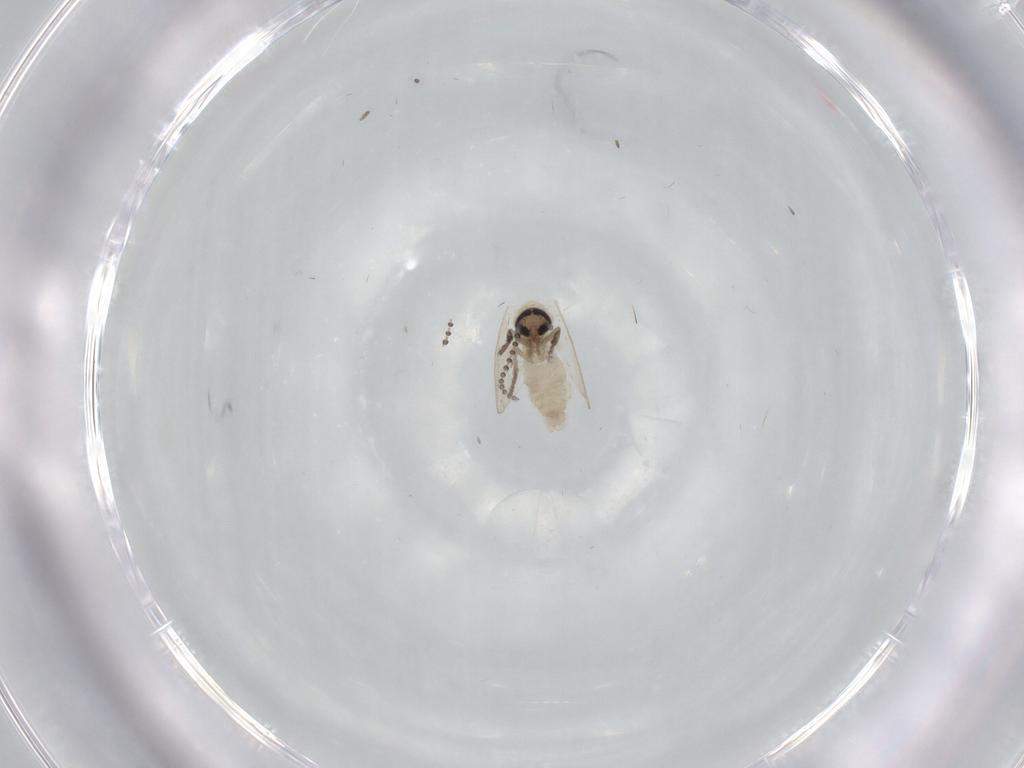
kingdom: Animalia
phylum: Arthropoda
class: Insecta
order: Diptera
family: Psychodidae
